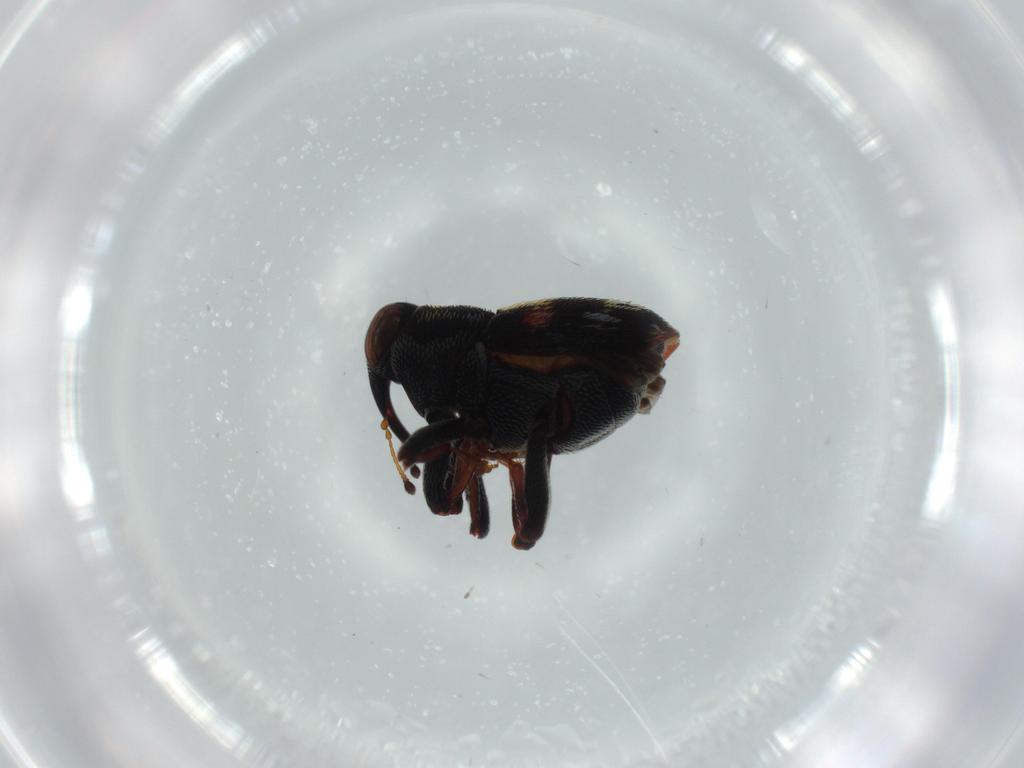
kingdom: Animalia
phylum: Arthropoda
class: Insecta
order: Coleoptera
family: Curculionidae
